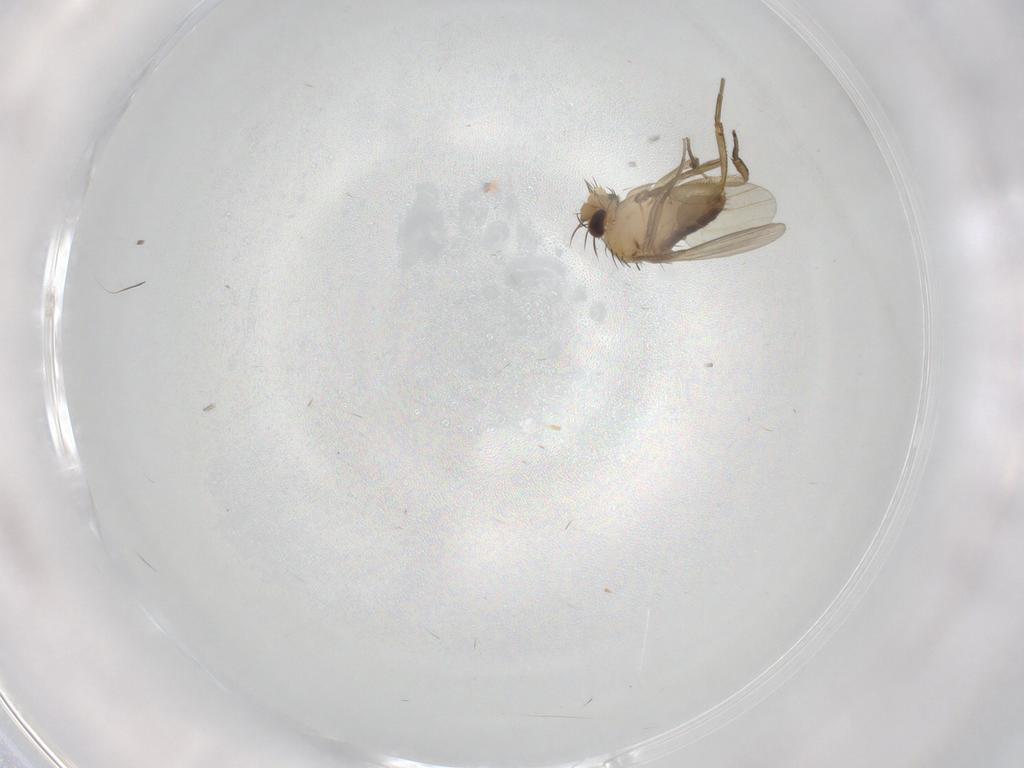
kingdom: Animalia
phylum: Arthropoda
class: Insecta
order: Diptera
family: Cecidomyiidae
